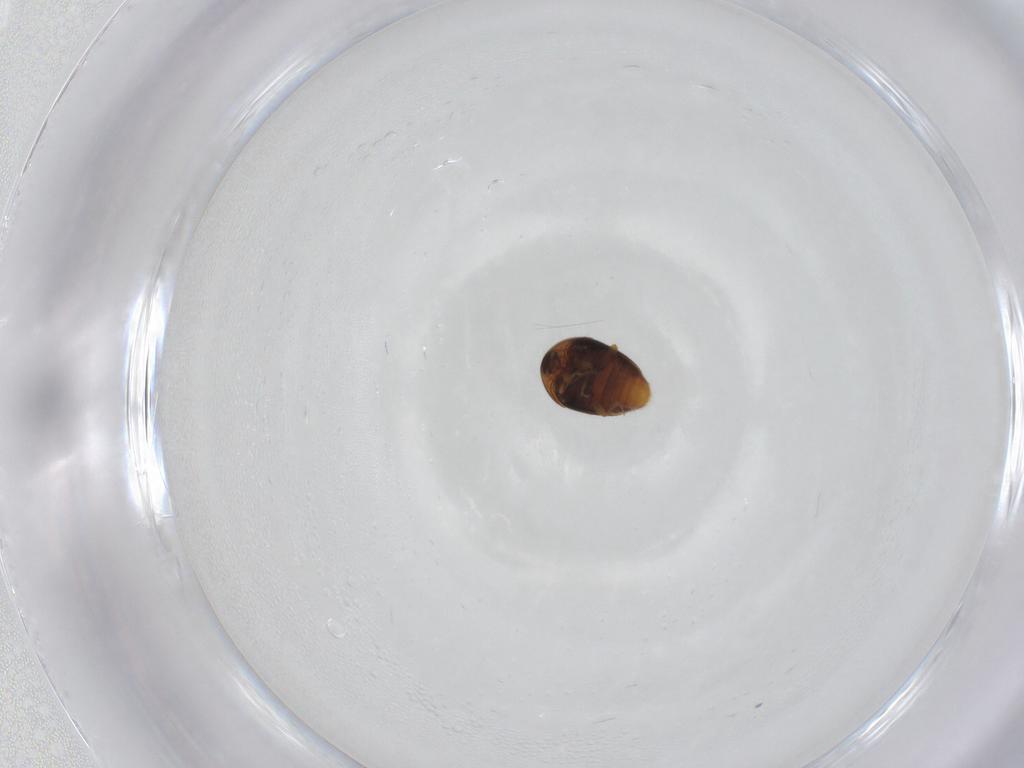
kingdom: Animalia
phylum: Arthropoda
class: Insecta
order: Coleoptera
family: Corylophidae
